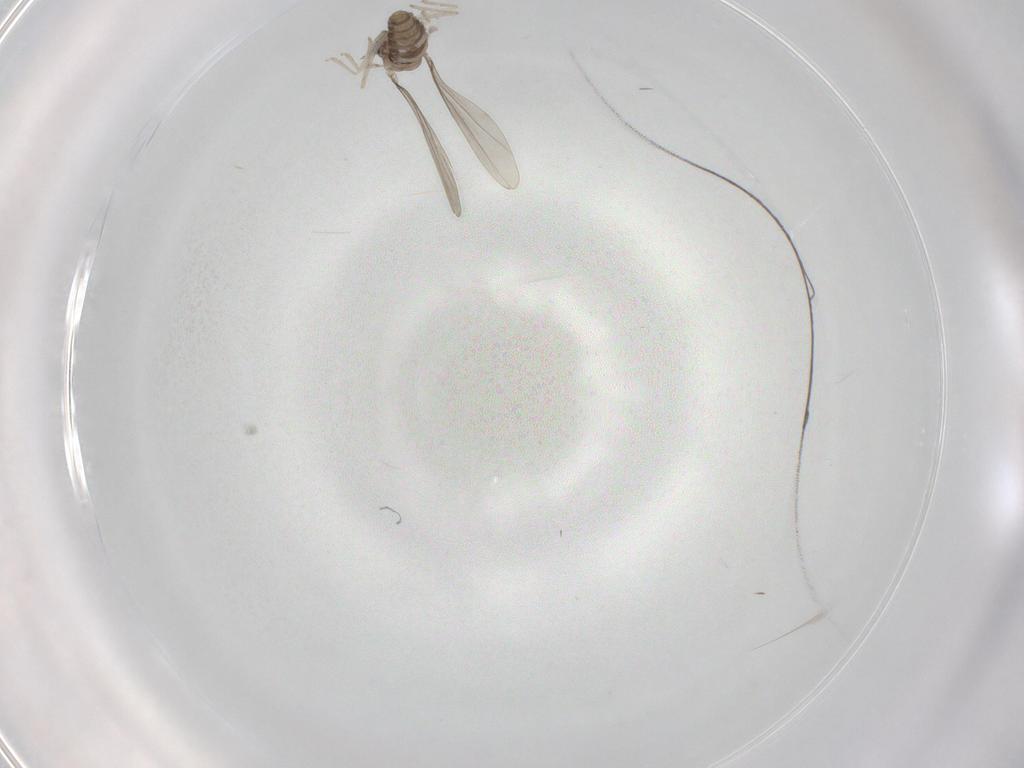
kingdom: Animalia
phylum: Arthropoda
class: Insecta
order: Diptera
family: Cecidomyiidae
